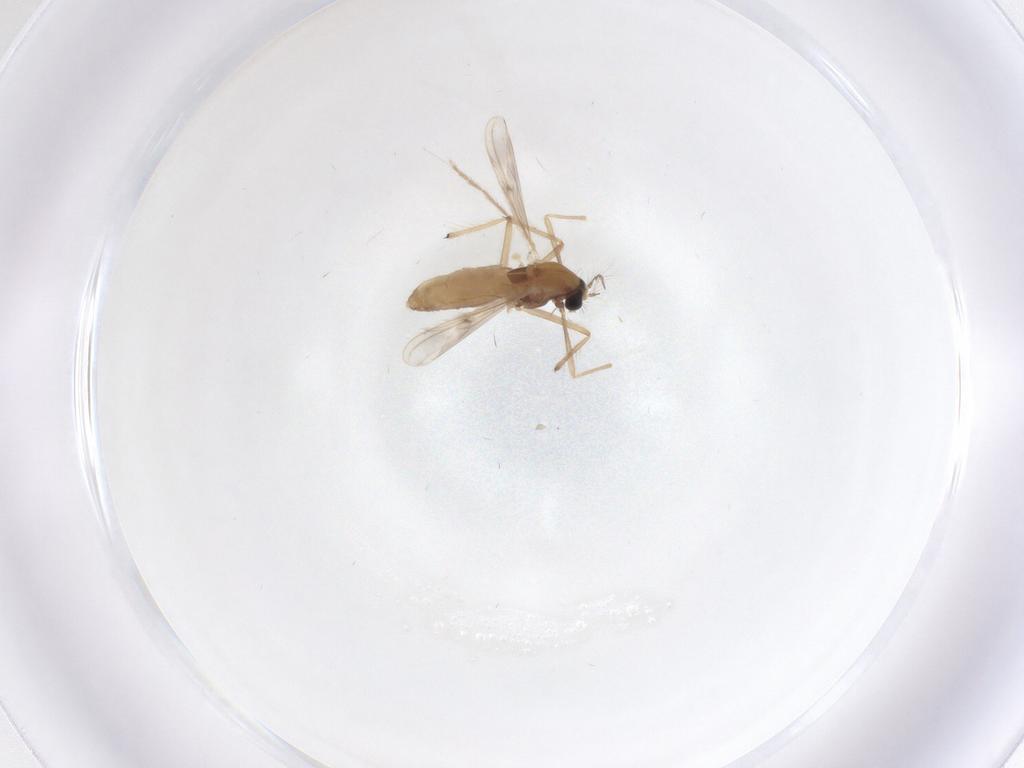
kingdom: Animalia
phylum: Arthropoda
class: Insecta
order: Diptera
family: Chironomidae
